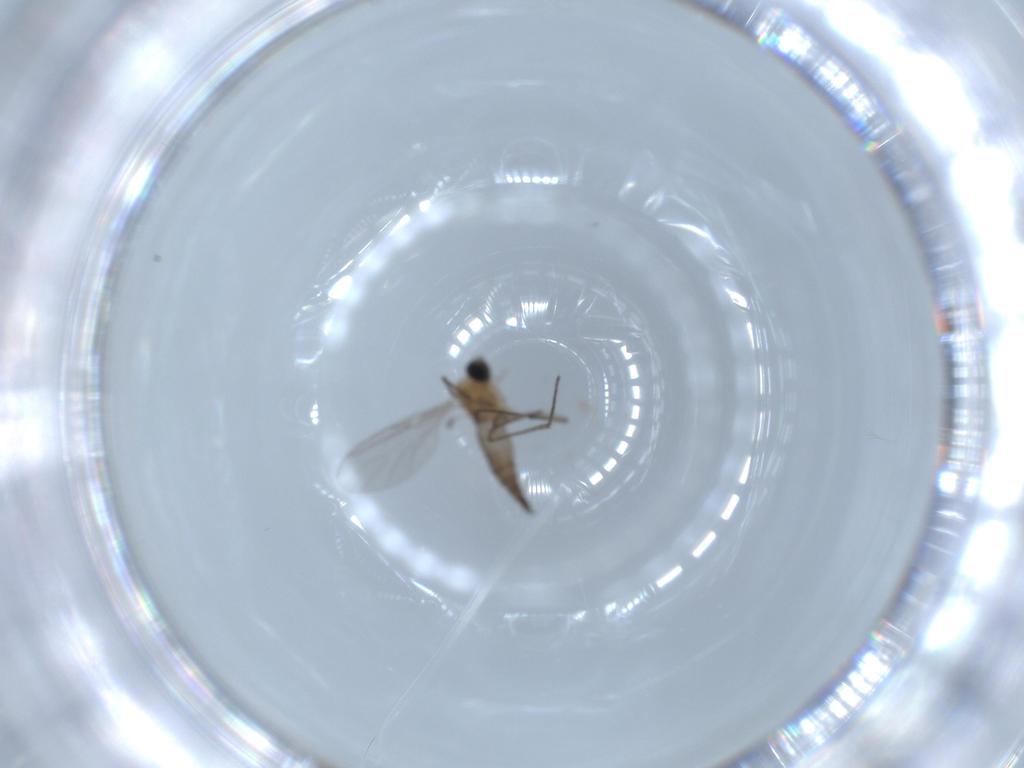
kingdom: Animalia
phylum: Arthropoda
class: Insecta
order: Diptera
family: Sciaridae
